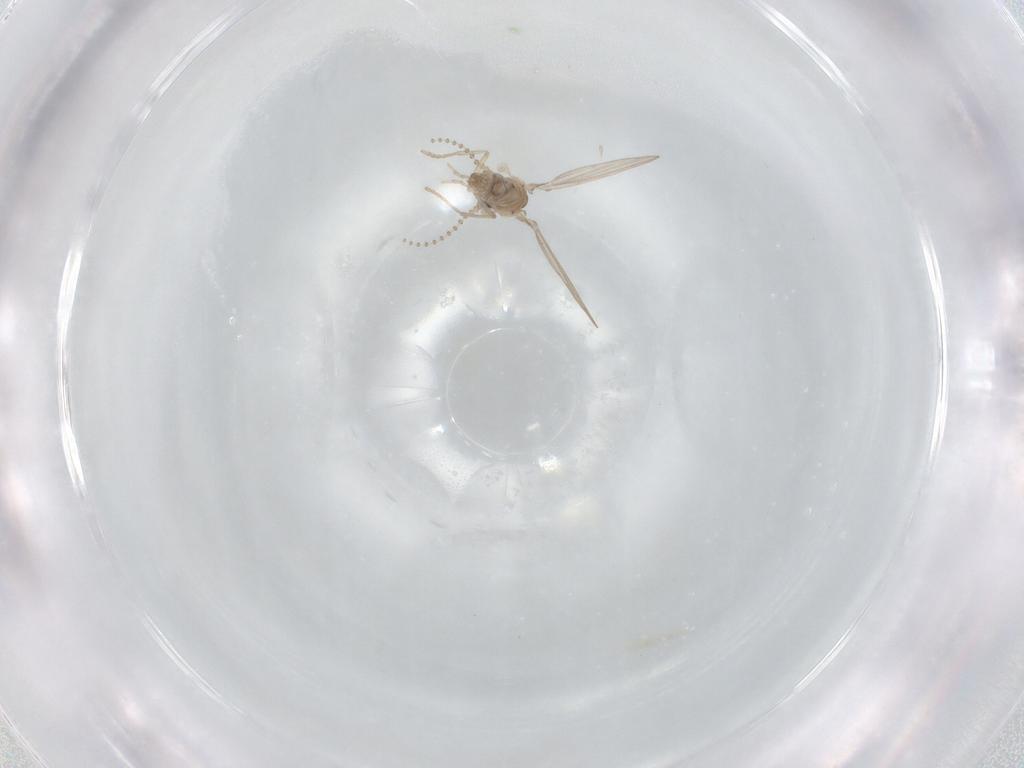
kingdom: Animalia
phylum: Arthropoda
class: Insecta
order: Diptera
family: Psychodidae
